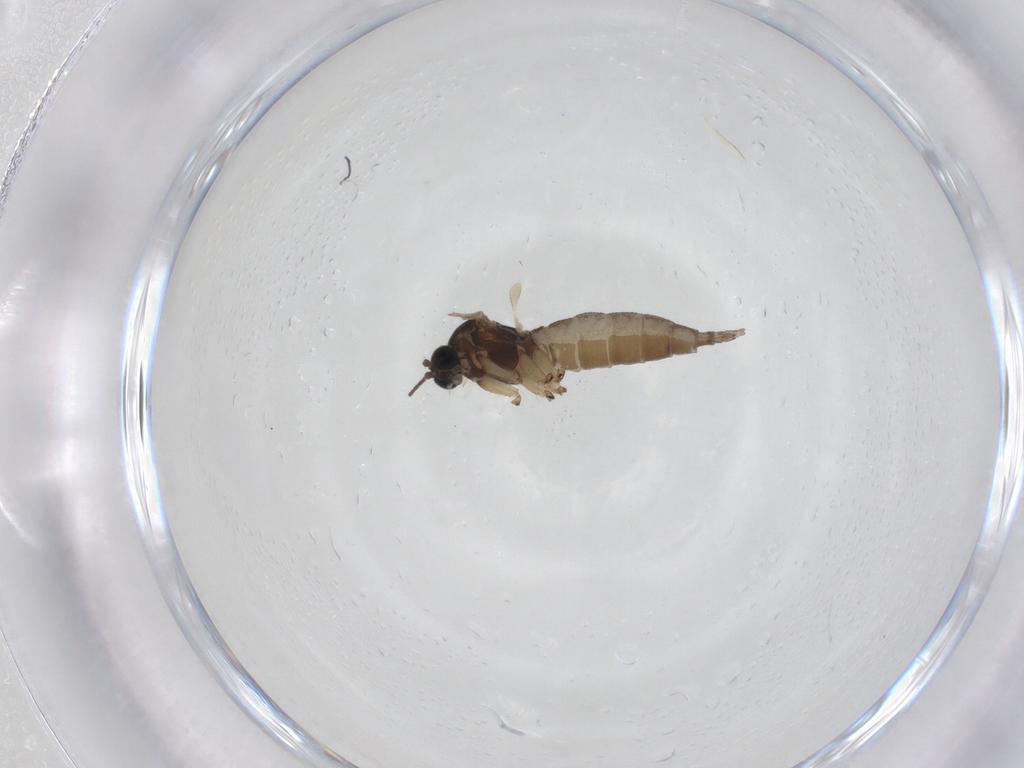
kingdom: Animalia
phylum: Arthropoda
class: Insecta
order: Diptera
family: Sciaridae
